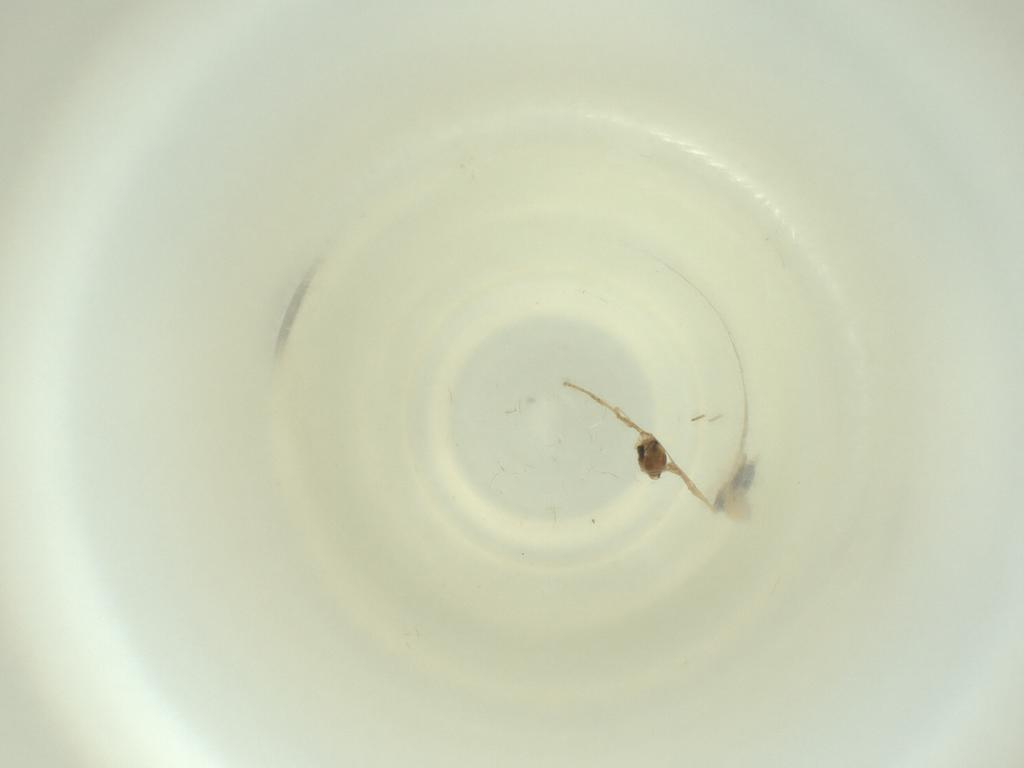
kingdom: Animalia
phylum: Arthropoda
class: Insecta
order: Diptera
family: Cecidomyiidae
